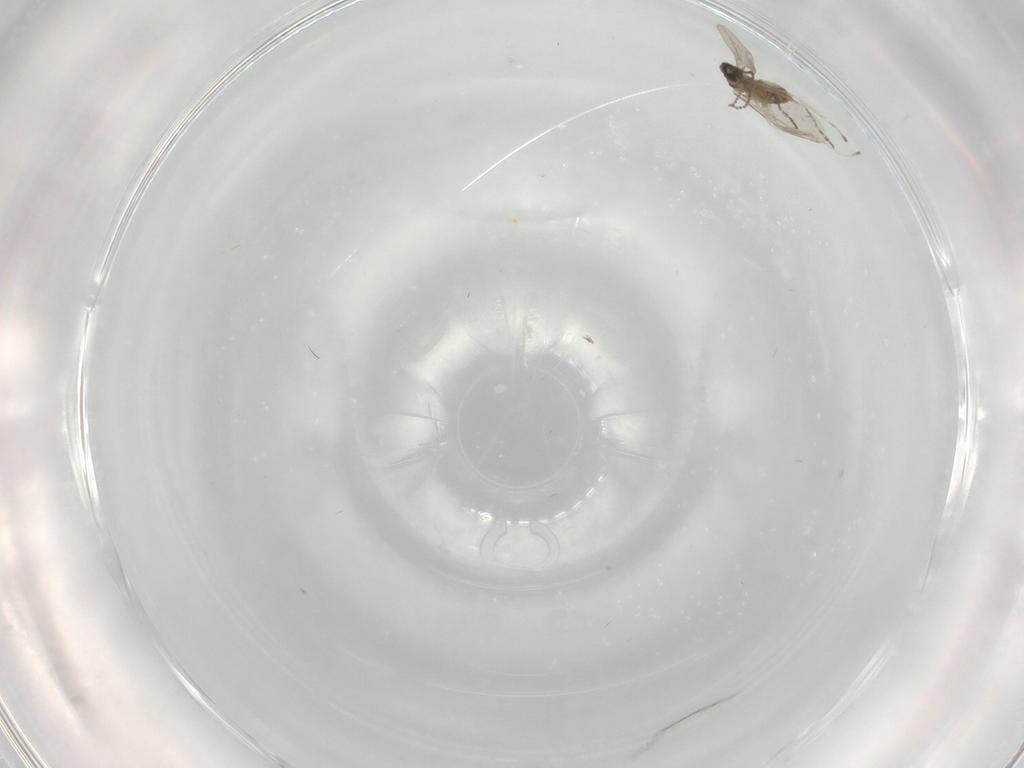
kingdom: Animalia
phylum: Arthropoda
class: Insecta
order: Diptera
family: Cecidomyiidae
